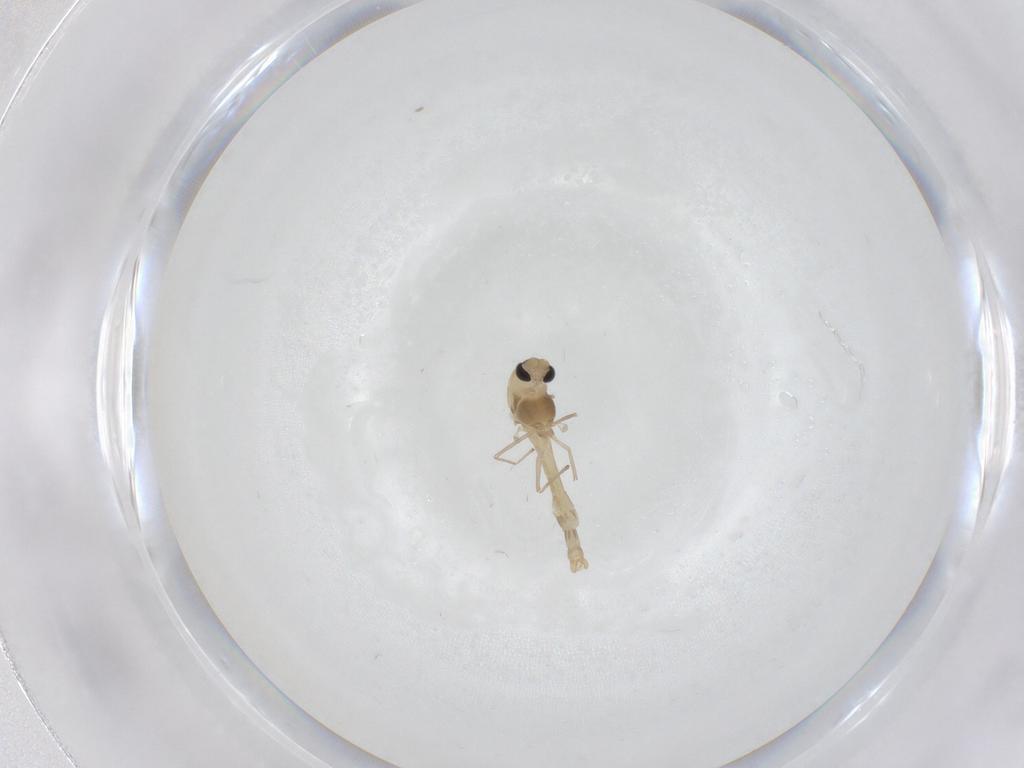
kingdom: Animalia
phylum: Arthropoda
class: Insecta
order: Diptera
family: Chironomidae
